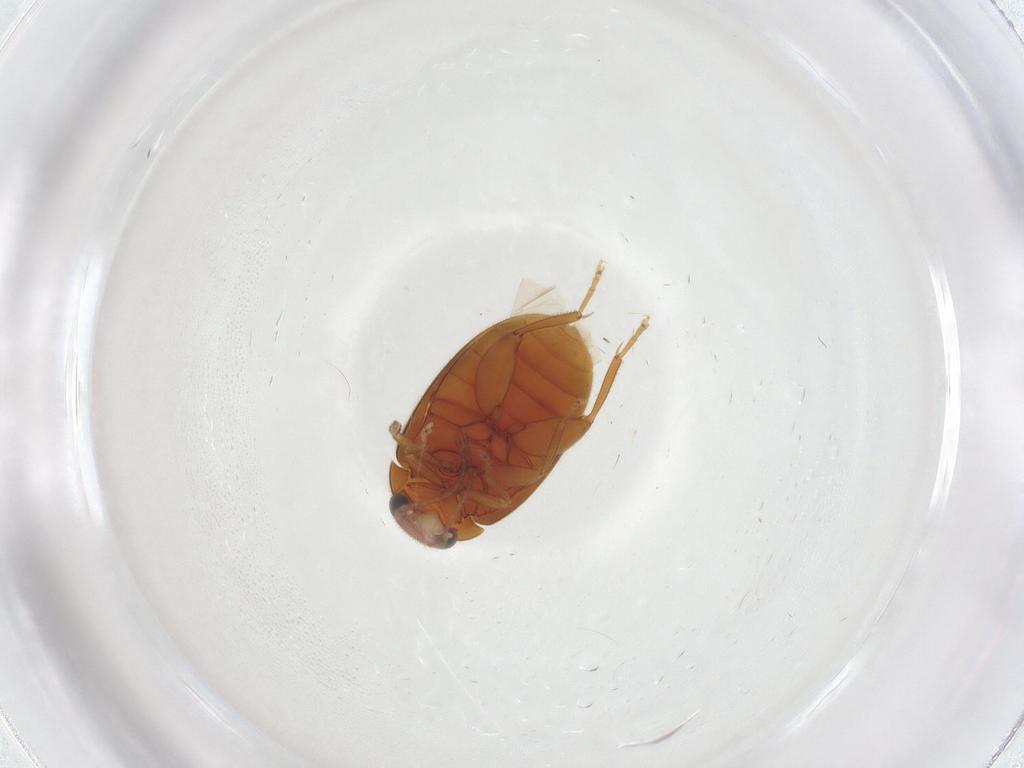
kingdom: Animalia
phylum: Arthropoda
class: Insecta
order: Coleoptera
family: Scirtidae
